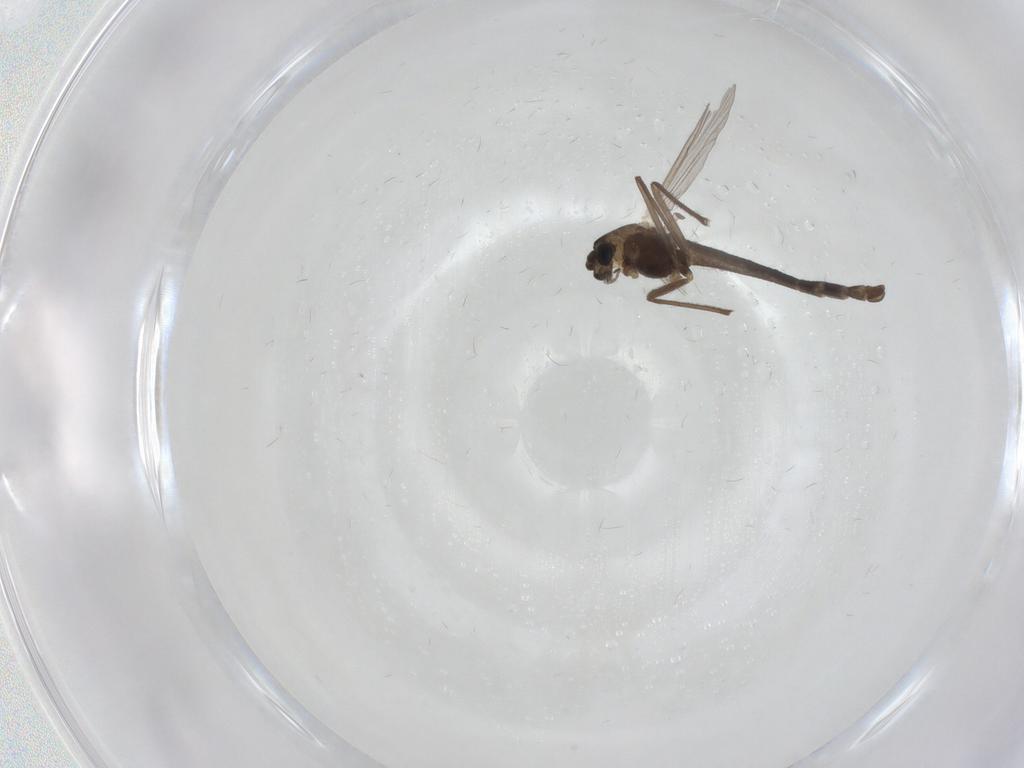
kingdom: Animalia
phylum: Arthropoda
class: Insecta
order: Diptera
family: Chironomidae
